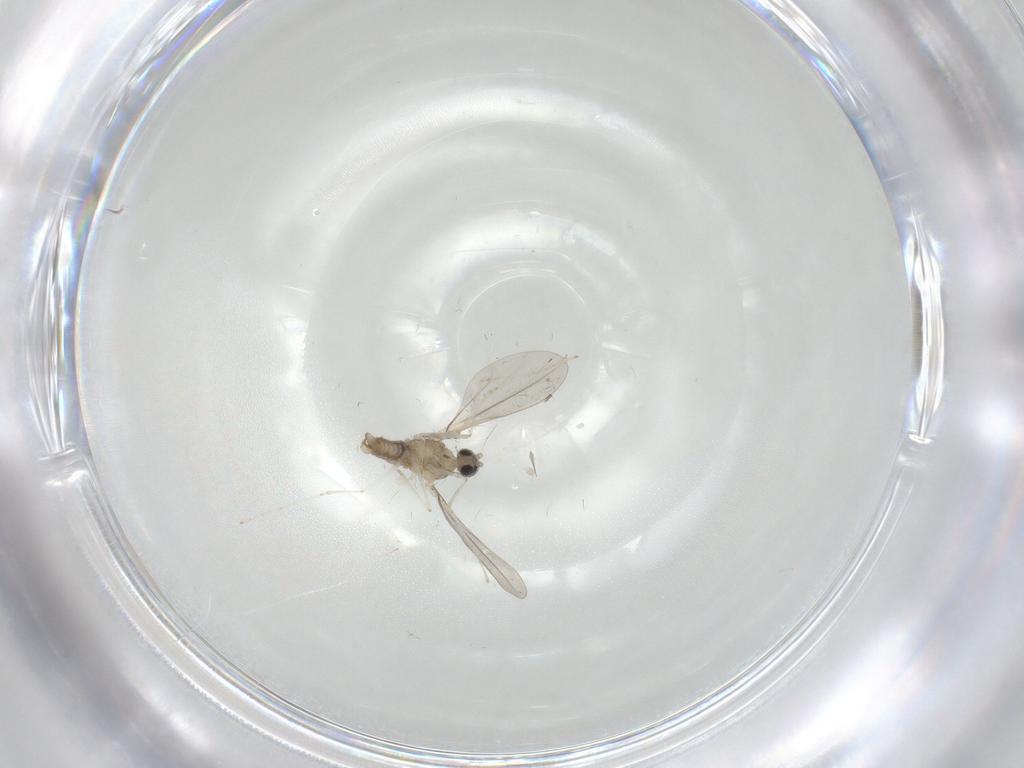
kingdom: Animalia
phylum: Arthropoda
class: Insecta
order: Diptera
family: Cecidomyiidae
